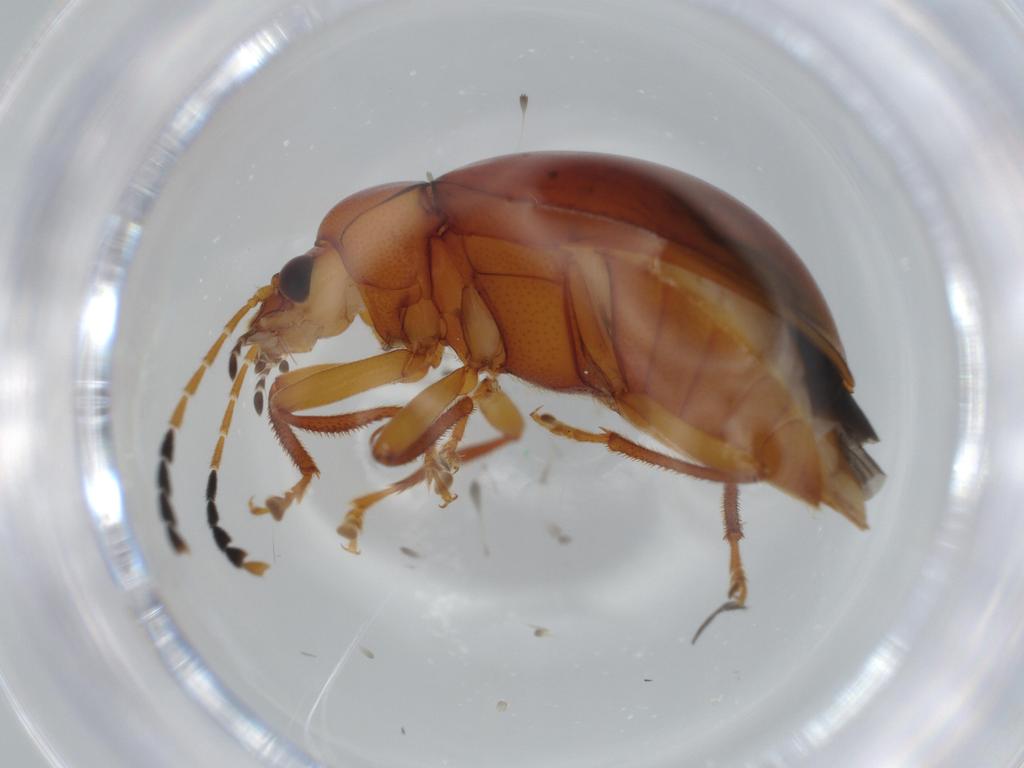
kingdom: Animalia
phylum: Arthropoda
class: Insecta
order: Coleoptera
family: Ptilodactylidae
